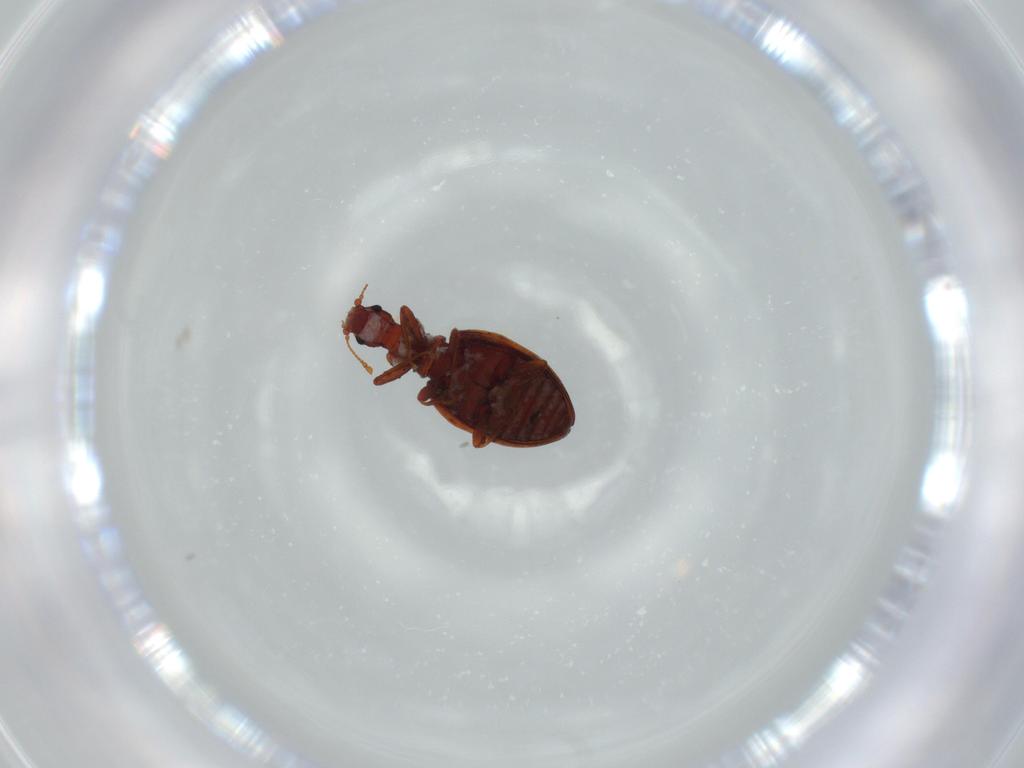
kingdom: Animalia
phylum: Arthropoda
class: Insecta
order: Coleoptera
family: Latridiidae
